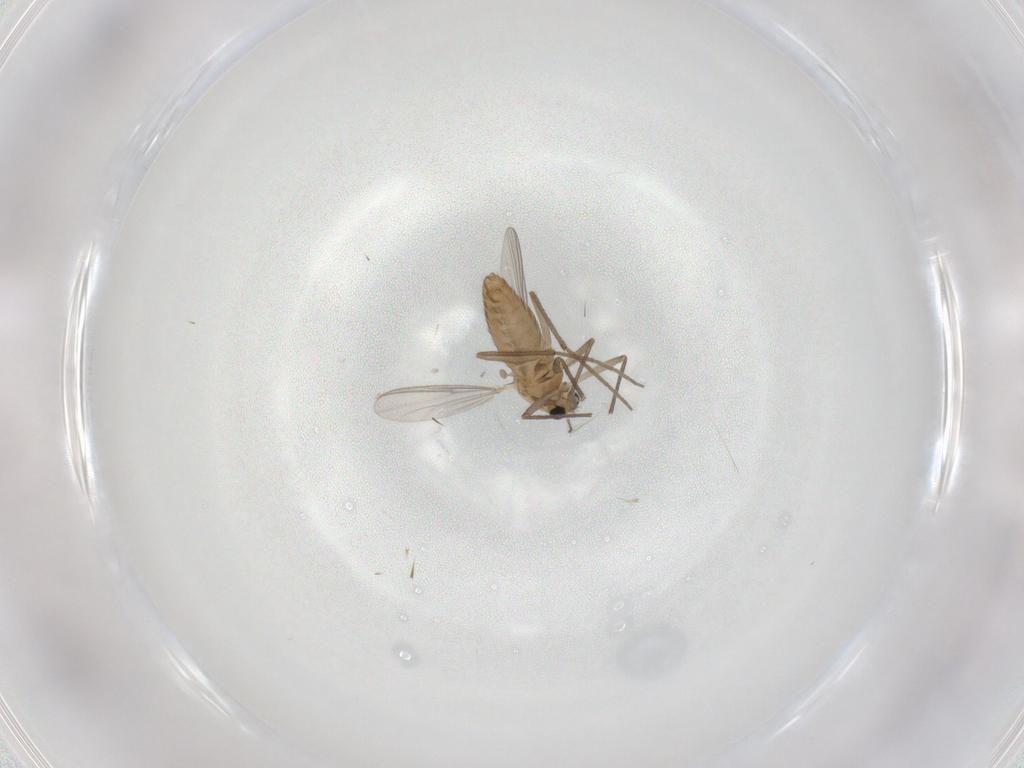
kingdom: Animalia
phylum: Arthropoda
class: Insecta
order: Diptera
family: Chironomidae
